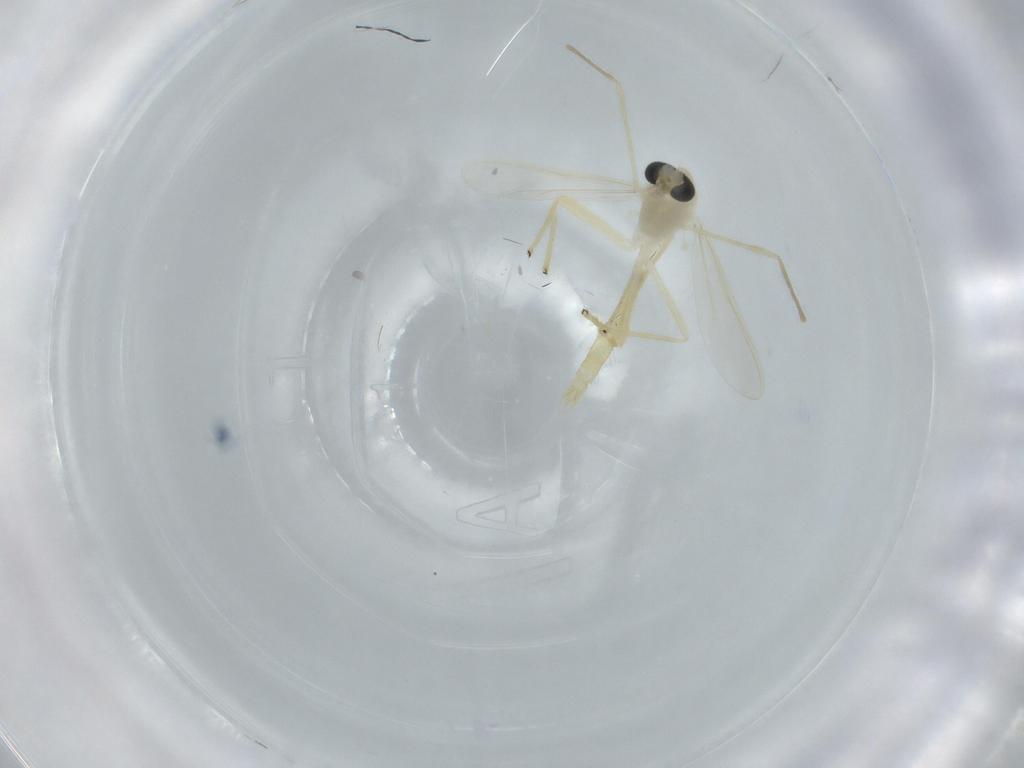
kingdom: Animalia
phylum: Arthropoda
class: Insecta
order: Diptera
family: Chironomidae
